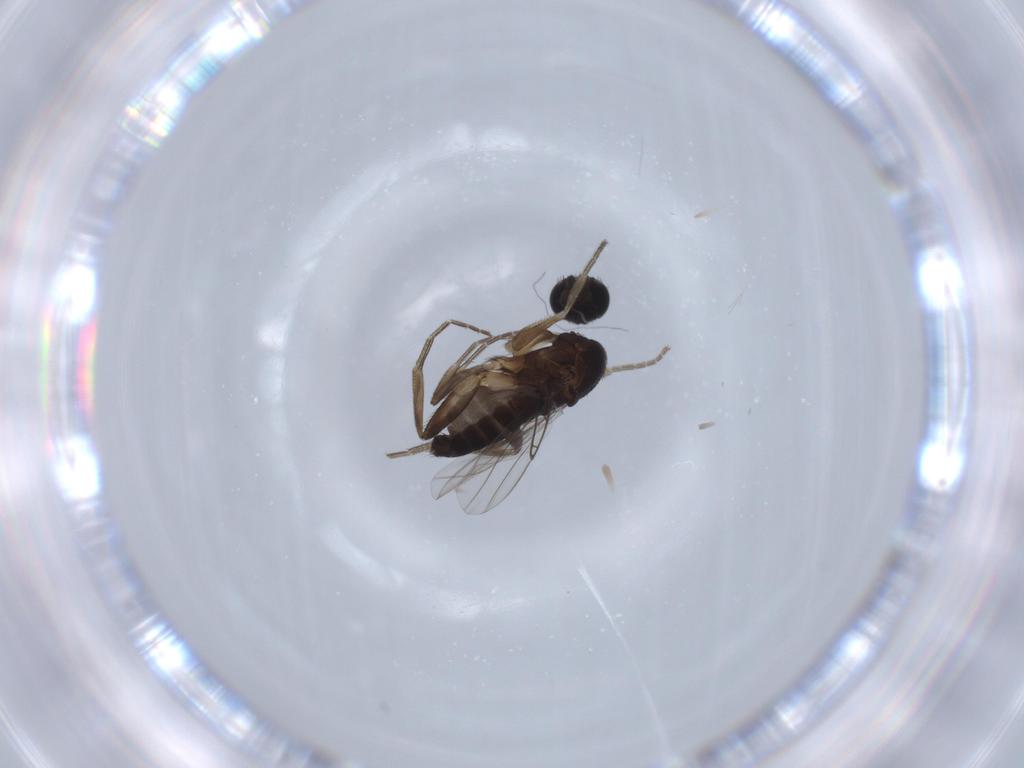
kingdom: Animalia
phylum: Arthropoda
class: Insecta
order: Diptera
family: Phoridae
